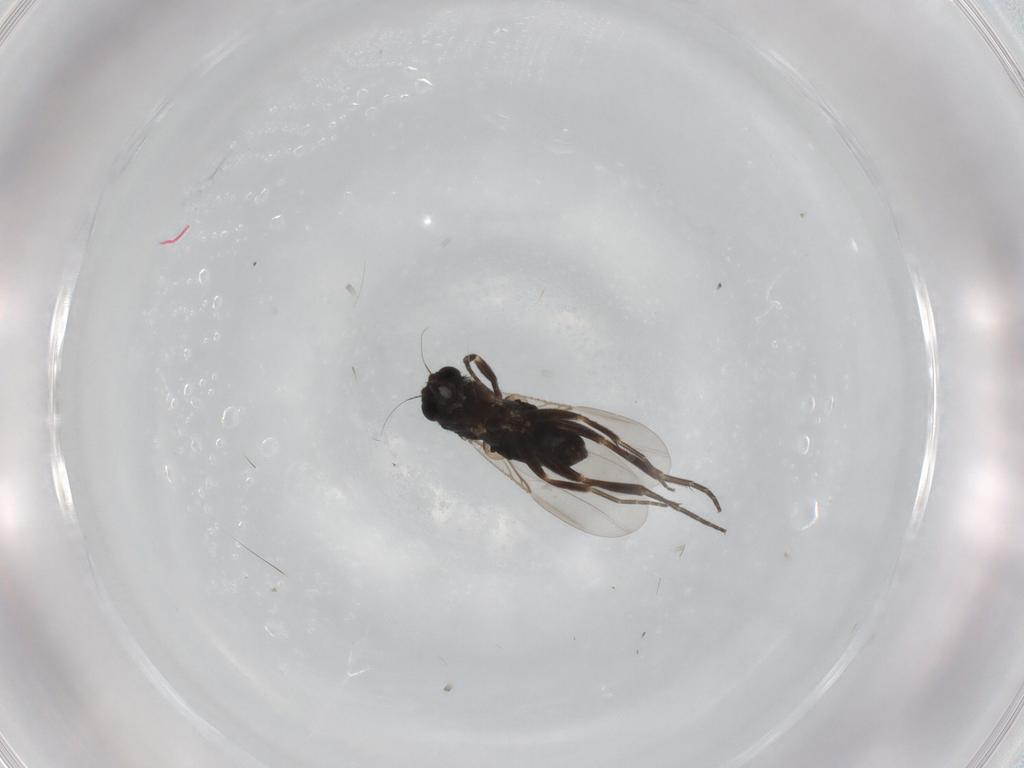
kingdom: Animalia
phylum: Arthropoda
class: Insecta
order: Diptera
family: Phoridae
